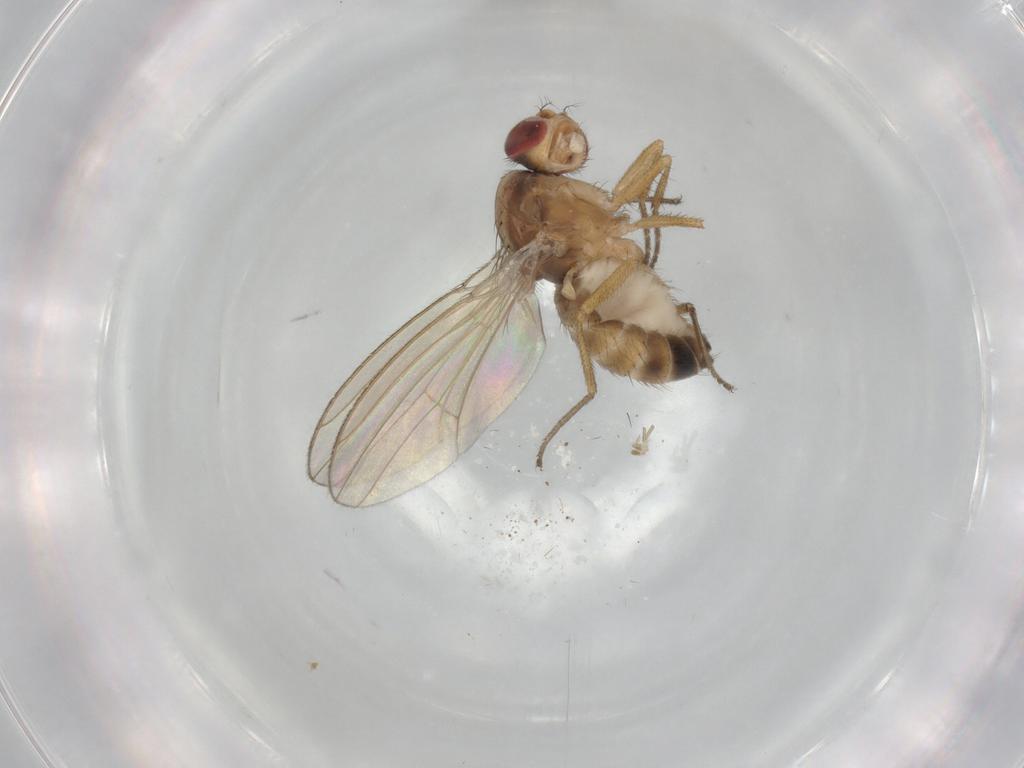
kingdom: Animalia
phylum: Arthropoda
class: Insecta
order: Diptera
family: Drosophilidae
